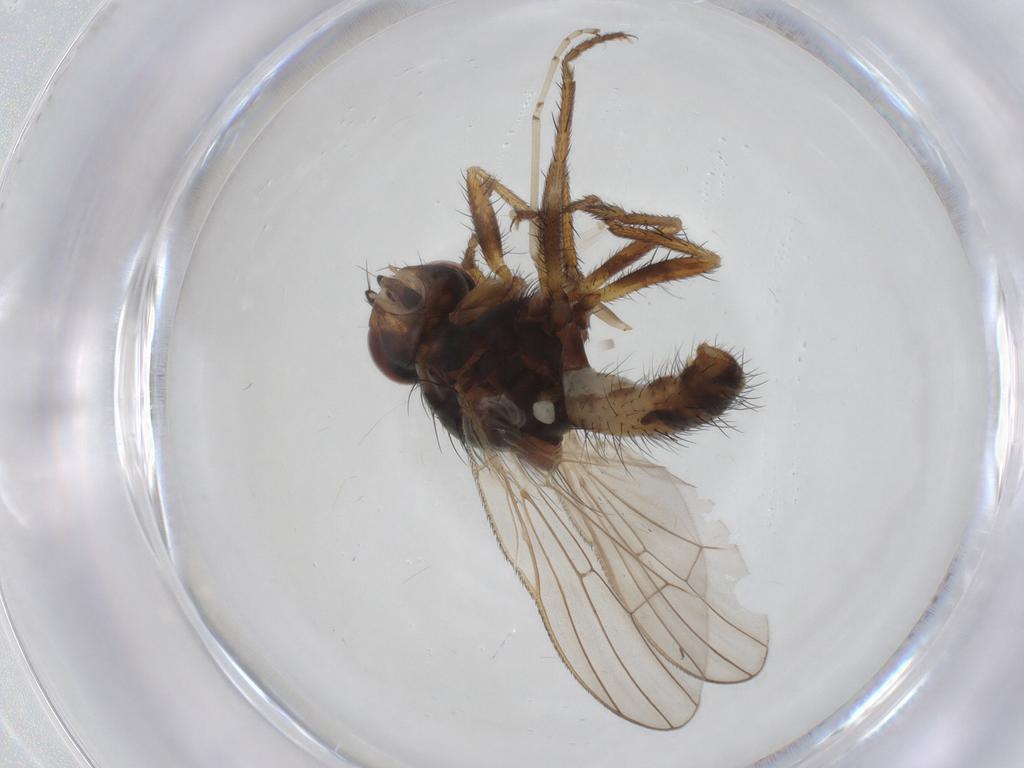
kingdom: Animalia
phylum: Arthropoda
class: Insecta
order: Diptera
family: Cecidomyiidae
